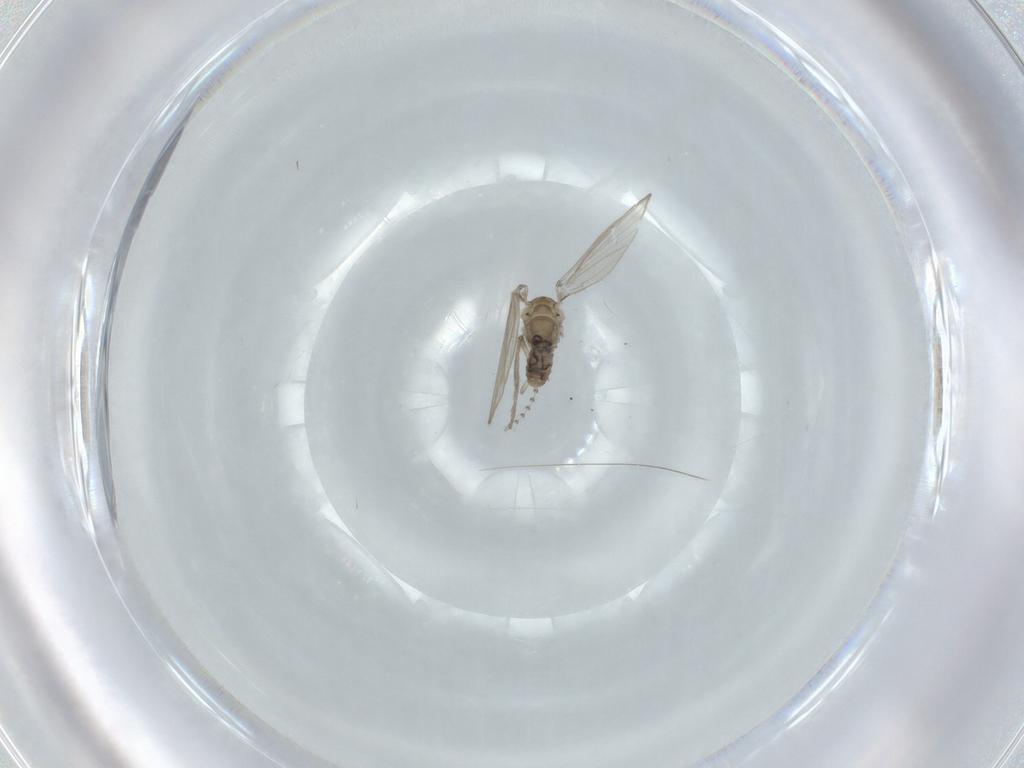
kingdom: Animalia
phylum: Arthropoda
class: Insecta
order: Diptera
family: Psychodidae
